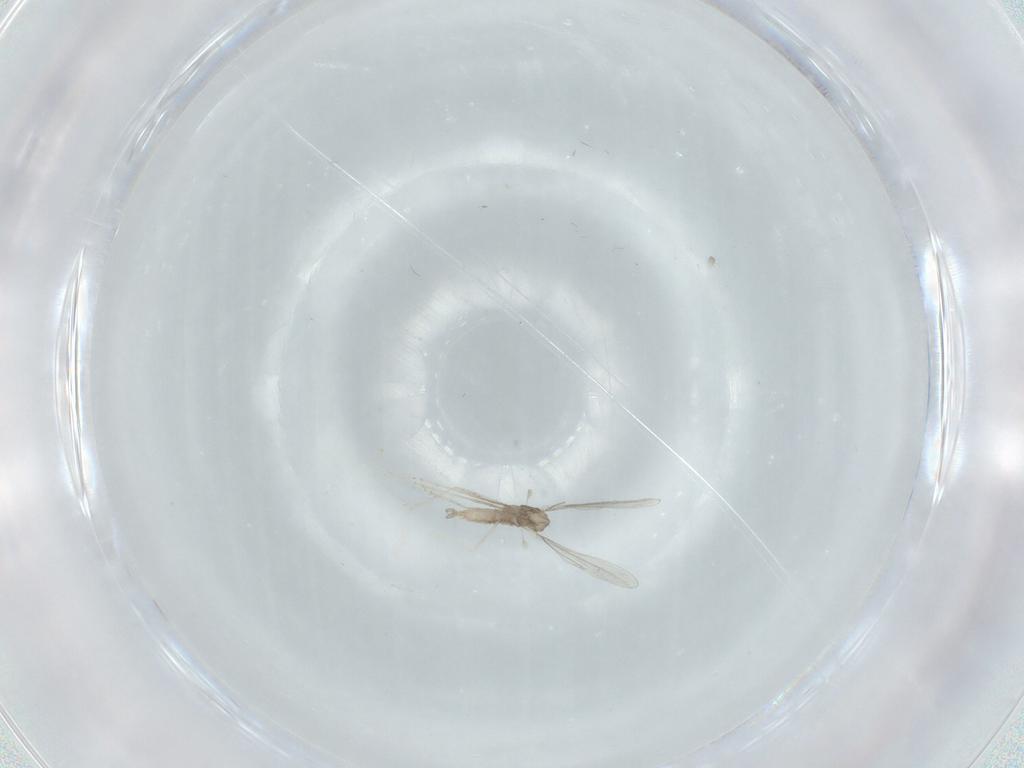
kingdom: Animalia
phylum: Arthropoda
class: Insecta
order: Diptera
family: Cecidomyiidae
